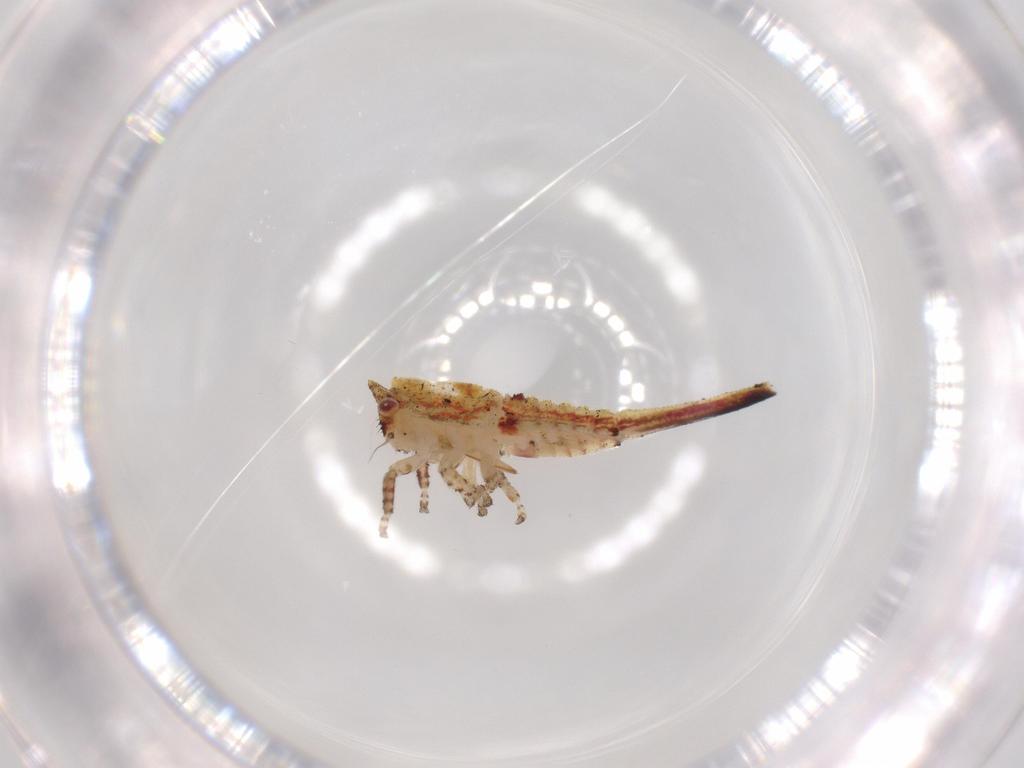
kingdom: Animalia
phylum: Arthropoda
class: Insecta
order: Hemiptera
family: Membracidae
